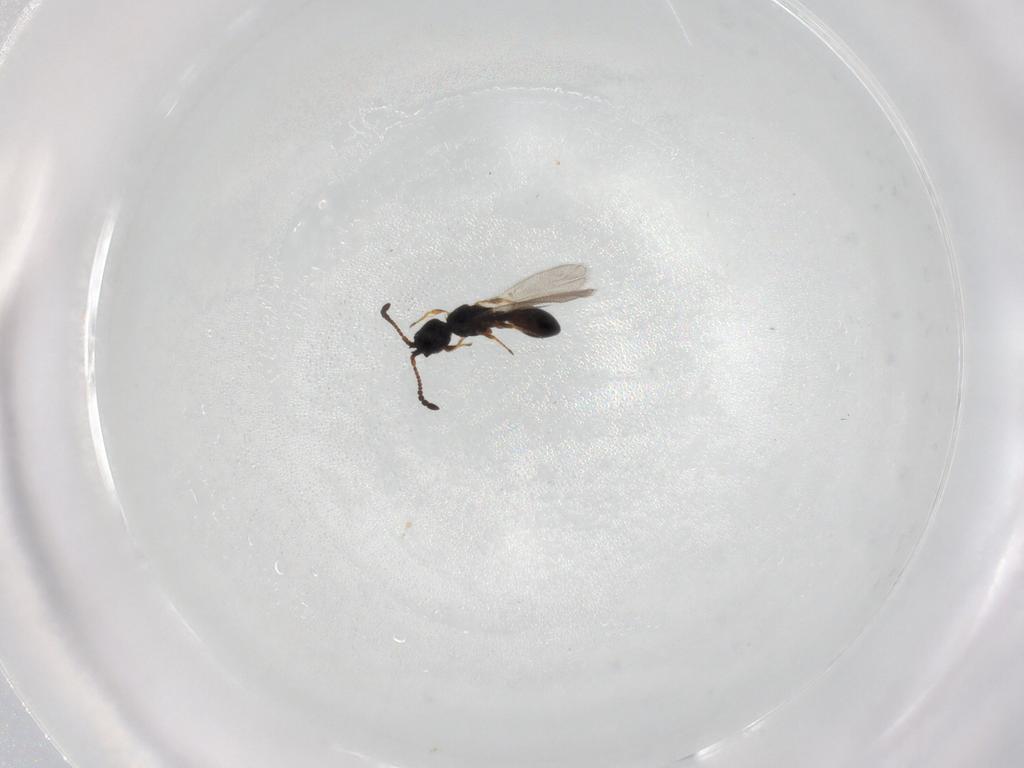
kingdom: Animalia
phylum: Arthropoda
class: Insecta
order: Hymenoptera
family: Diapriidae
